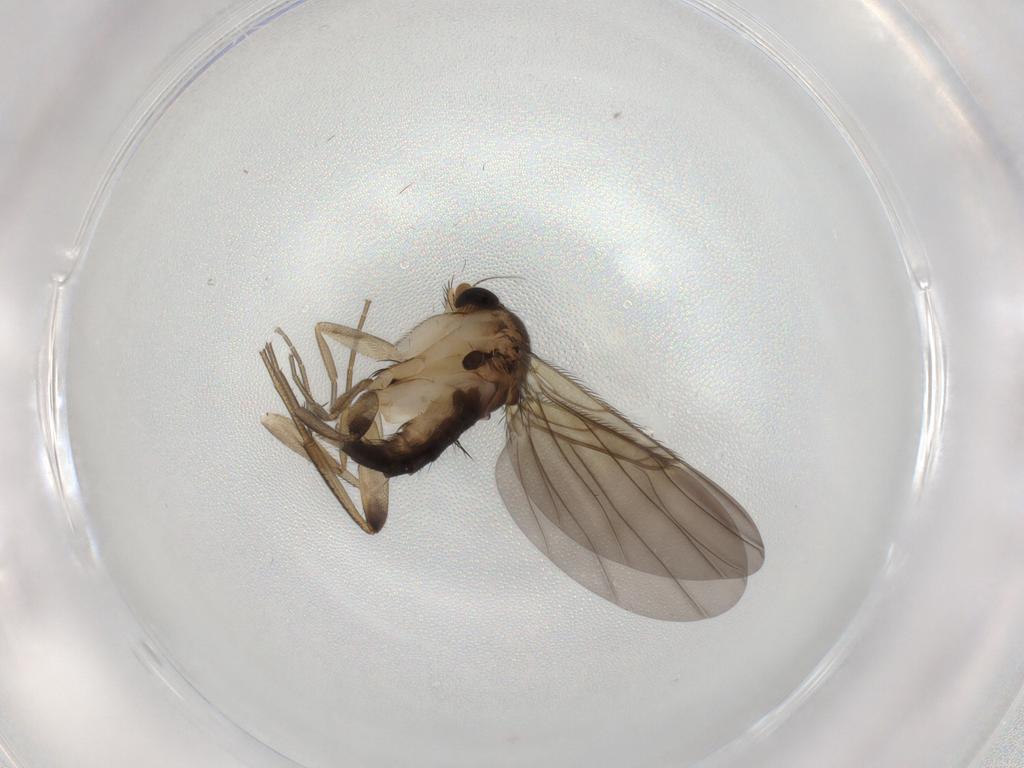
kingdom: Animalia
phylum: Arthropoda
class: Insecta
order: Diptera
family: Phoridae
